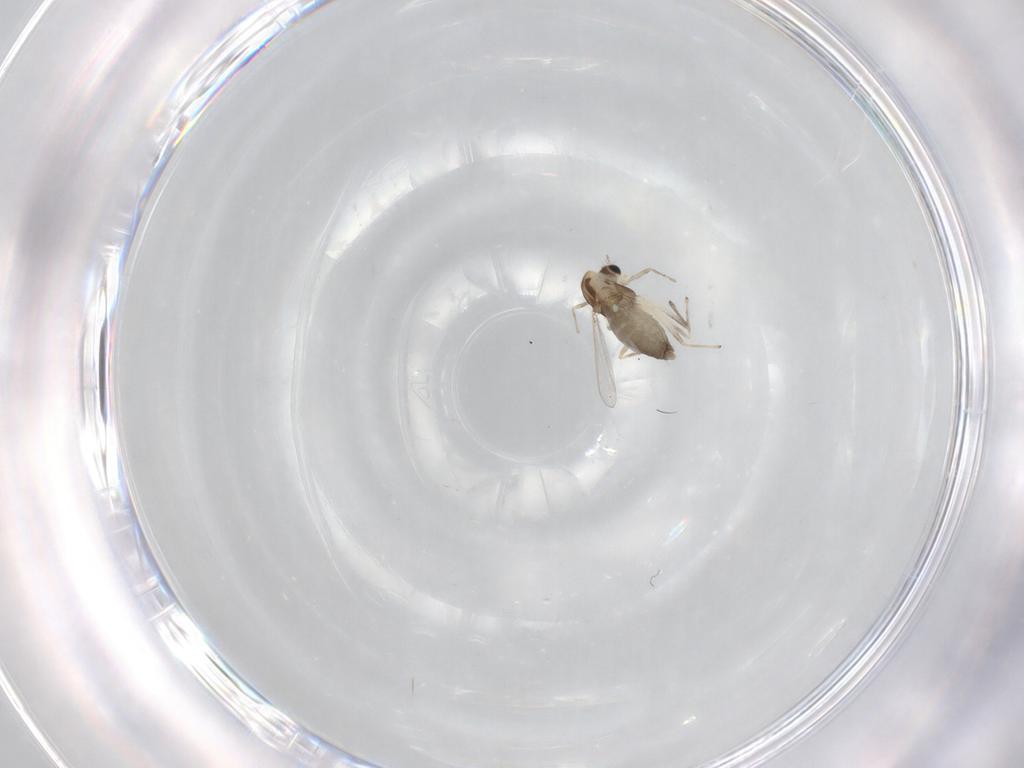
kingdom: Animalia
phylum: Arthropoda
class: Insecta
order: Diptera
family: Chironomidae
